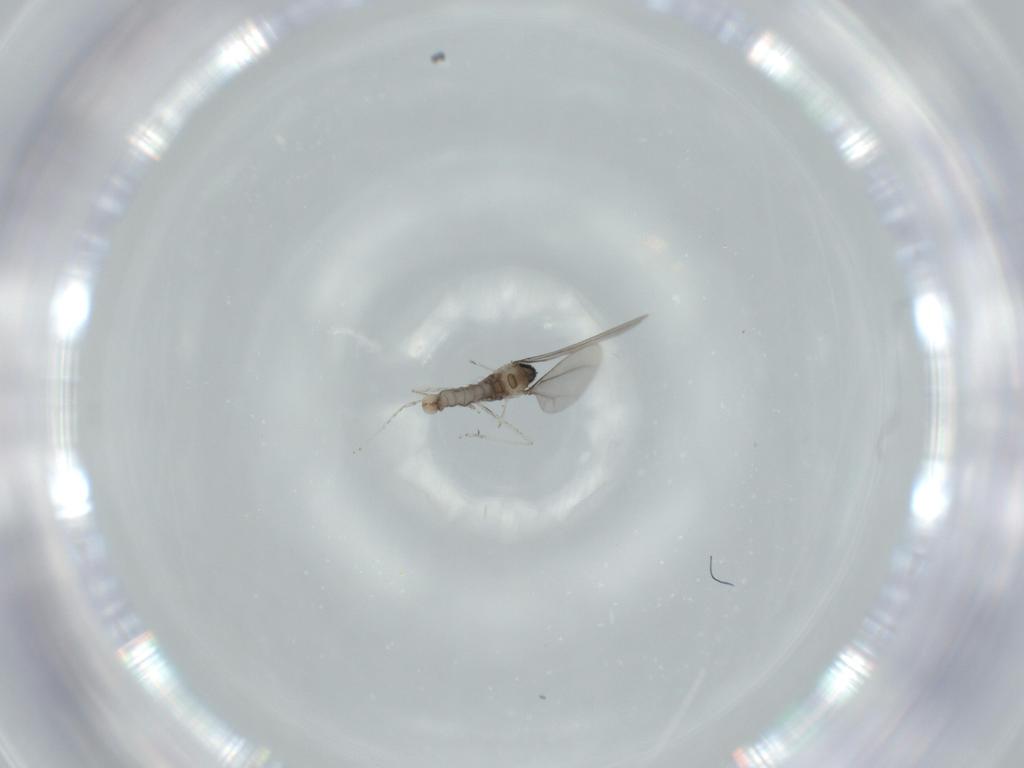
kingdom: Animalia
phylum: Arthropoda
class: Insecta
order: Diptera
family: Cecidomyiidae
